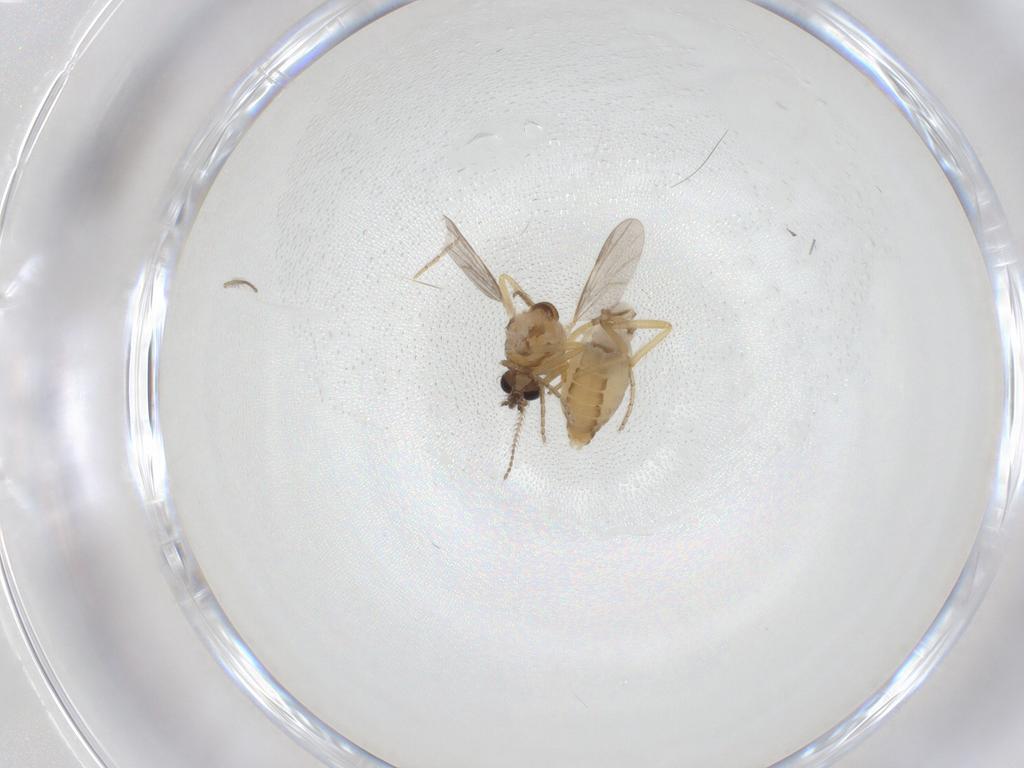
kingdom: Animalia
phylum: Arthropoda
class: Insecta
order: Diptera
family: Ceratopogonidae
